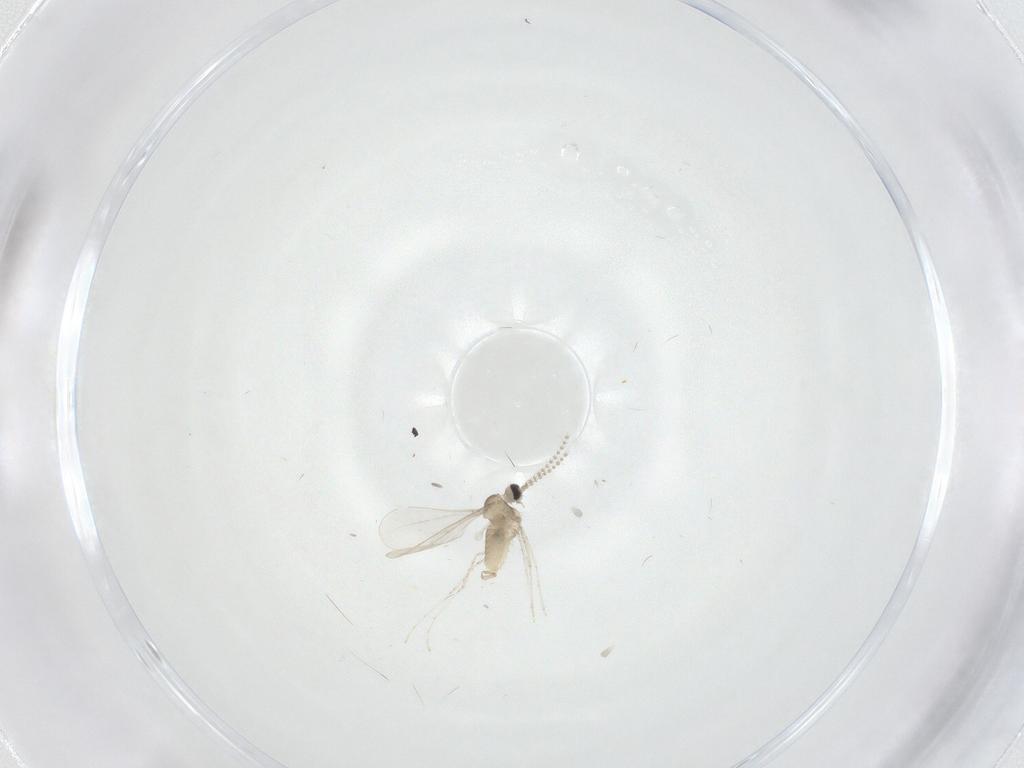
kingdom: Animalia
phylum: Arthropoda
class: Insecta
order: Diptera
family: Cecidomyiidae
